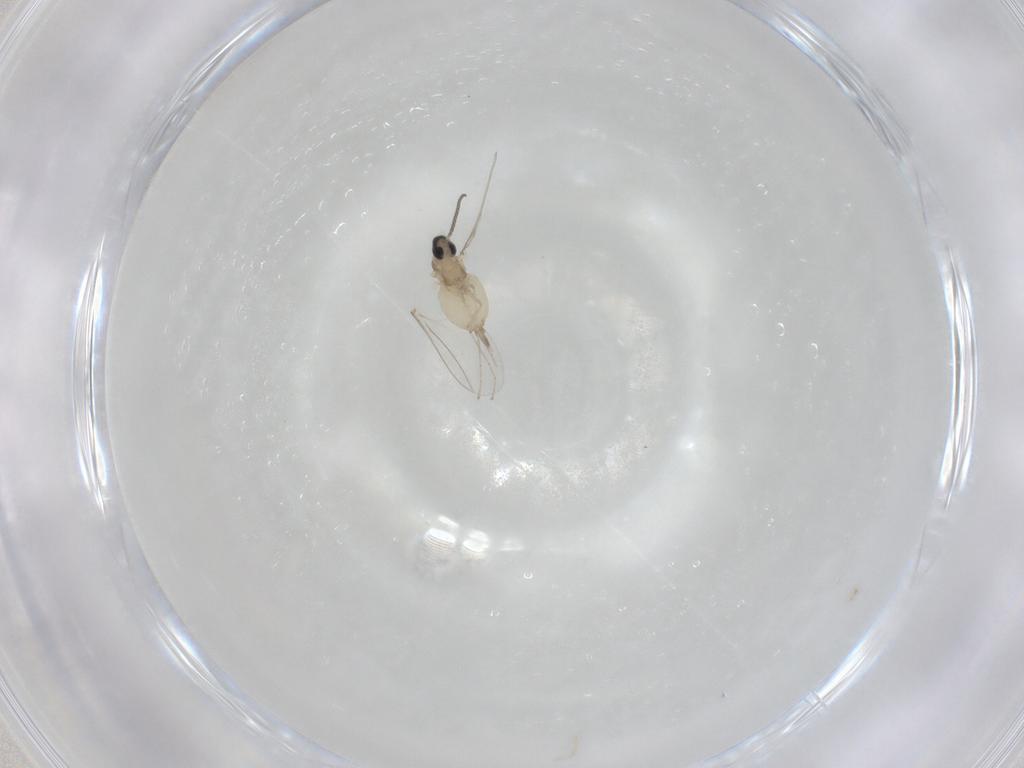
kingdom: Animalia
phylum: Arthropoda
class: Insecta
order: Diptera
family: Cecidomyiidae
